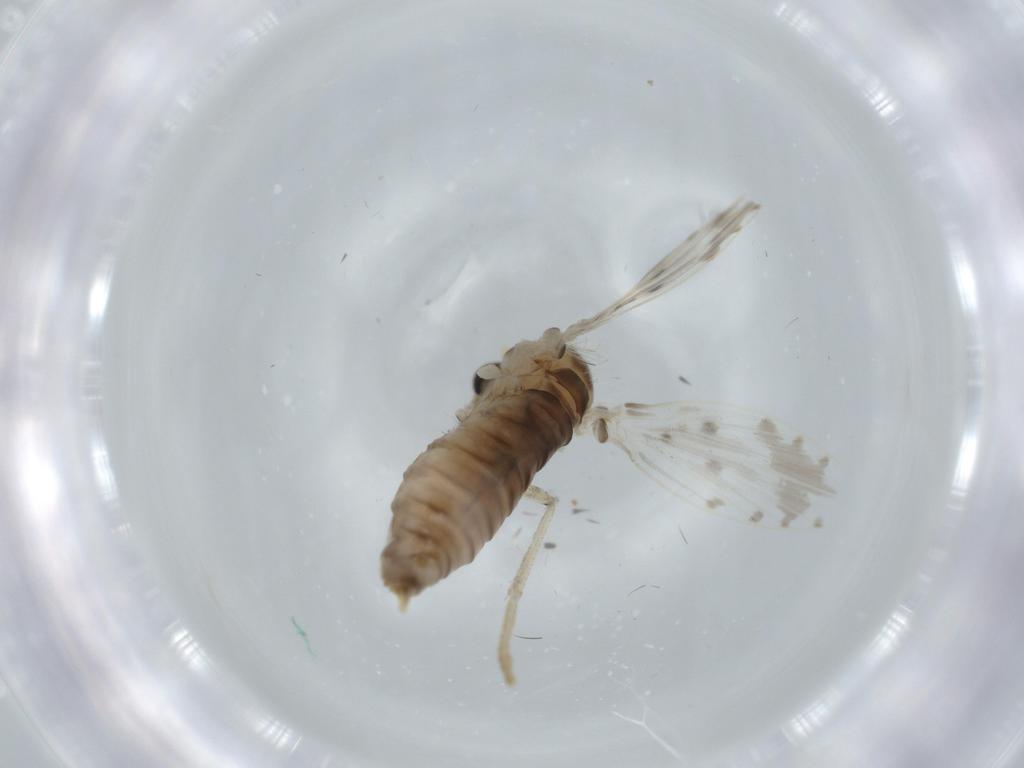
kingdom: Animalia
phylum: Arthropoda
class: Insecta
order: Diptera
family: Psychodidae
